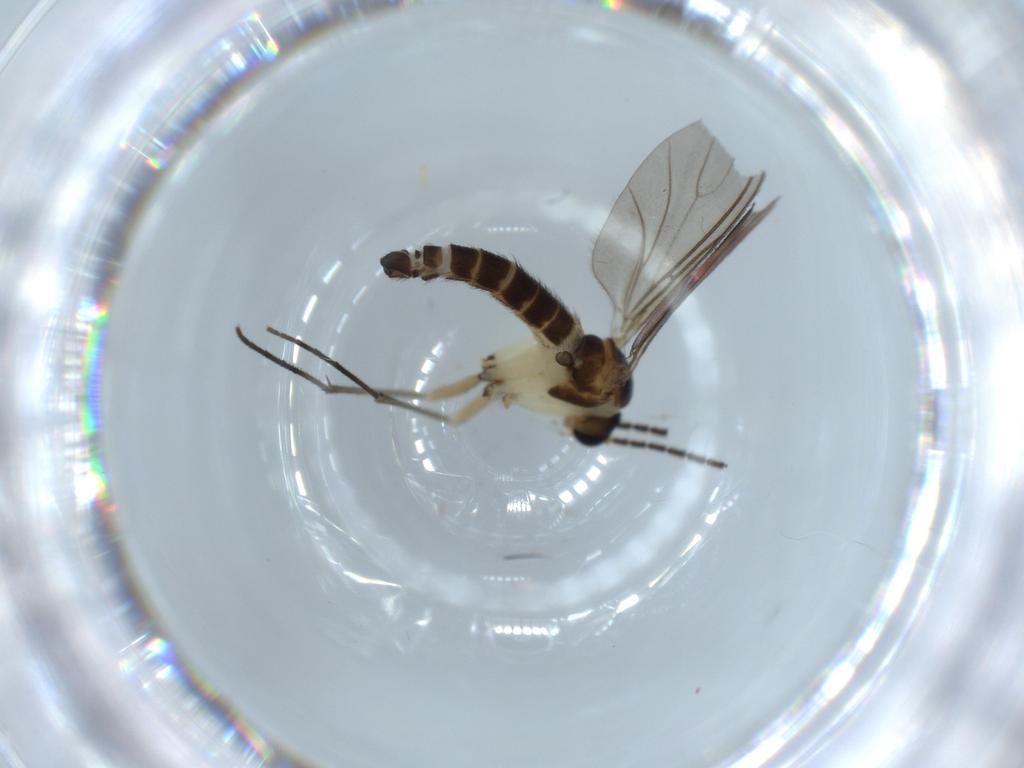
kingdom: Animalia
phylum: Arthropoda
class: Insecta
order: Diptera
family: Sciaridae
